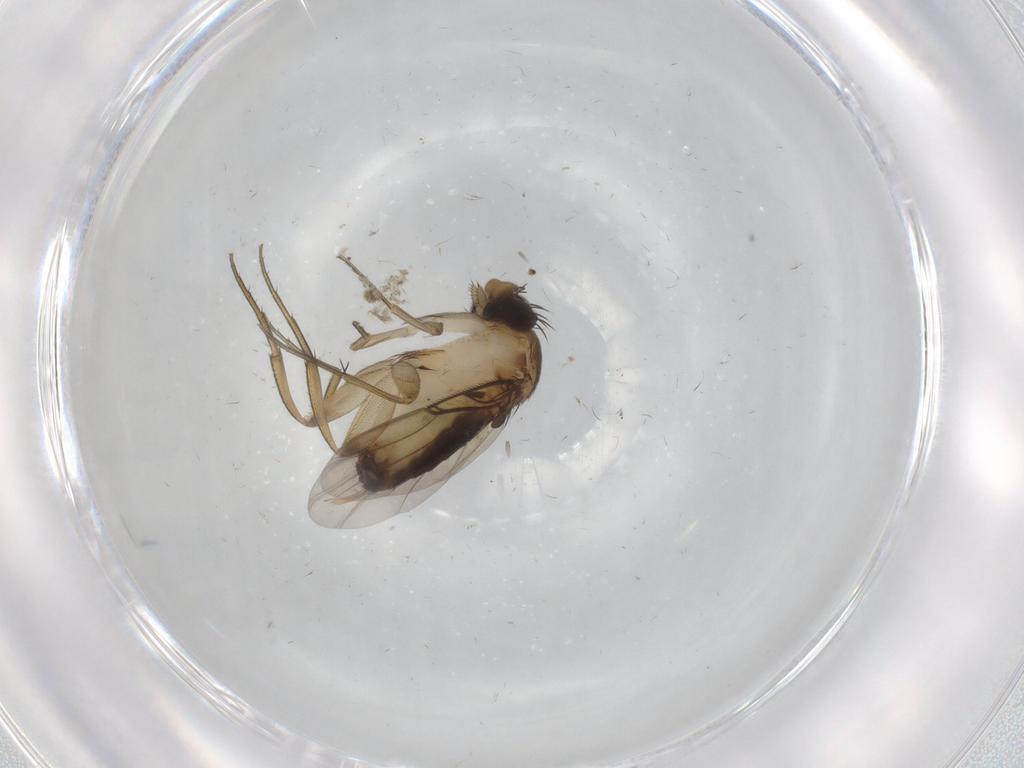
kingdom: Animalia
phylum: Arthropoda
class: Insecta
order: Diptera
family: Phoridae
